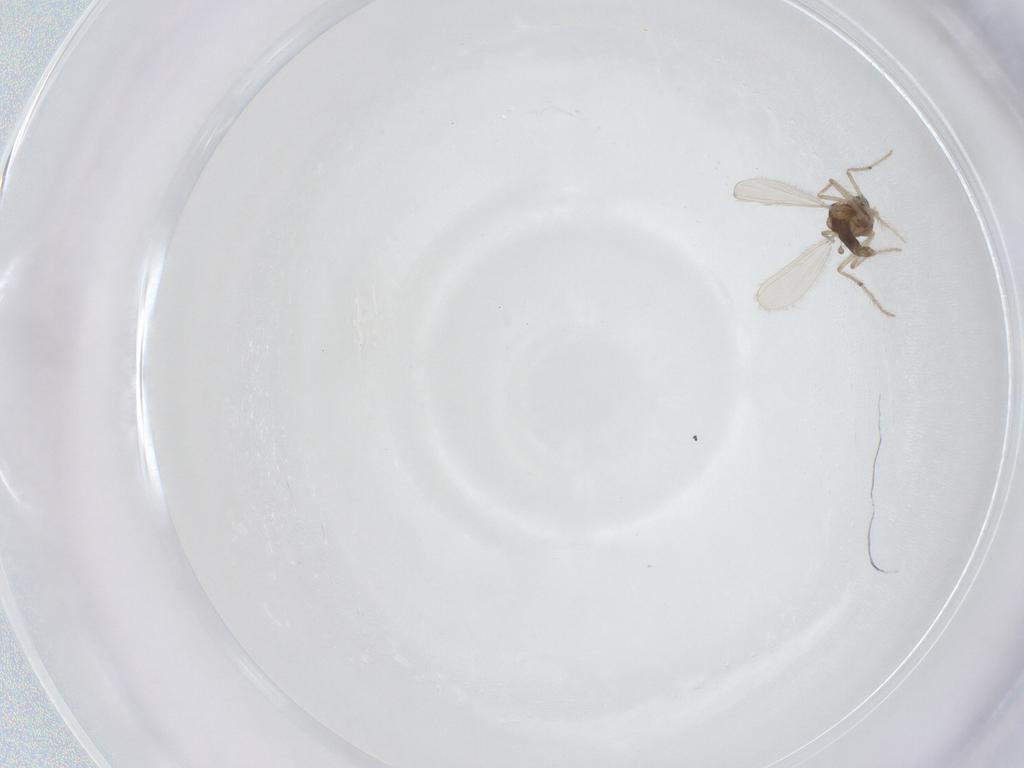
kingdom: Animalia
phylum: Arthropoda
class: Insecta
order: Diptera
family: Chironomidae
